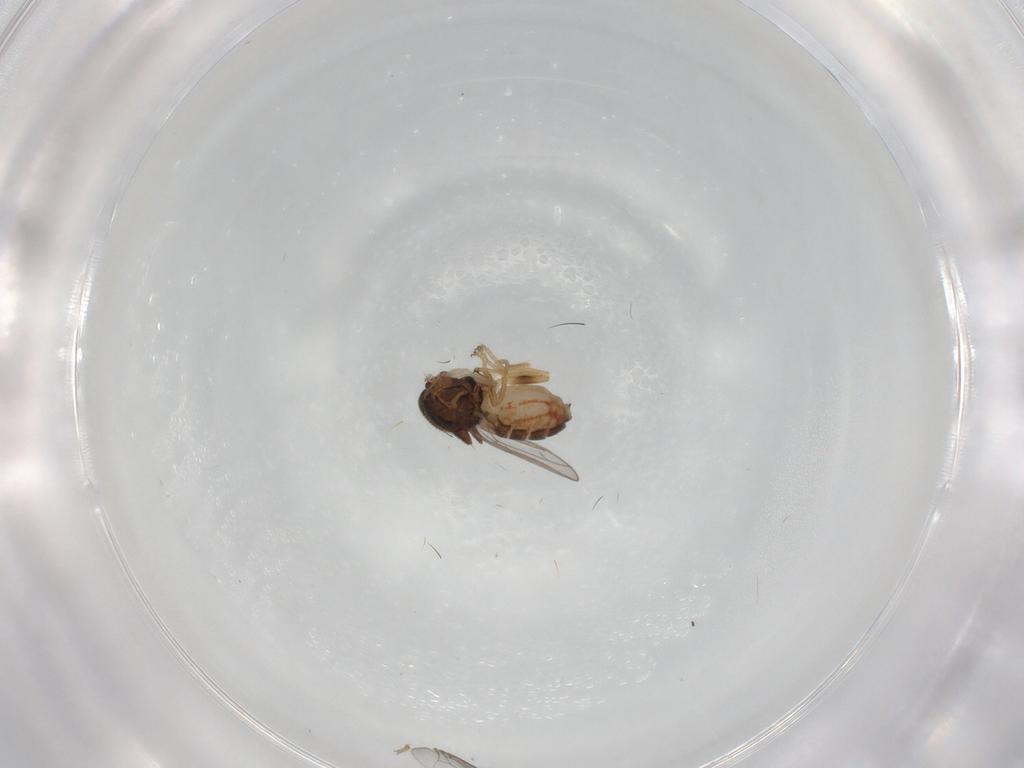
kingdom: Animalia
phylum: Arthropoda
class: Insecta
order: Diptera
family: Chloropidae
